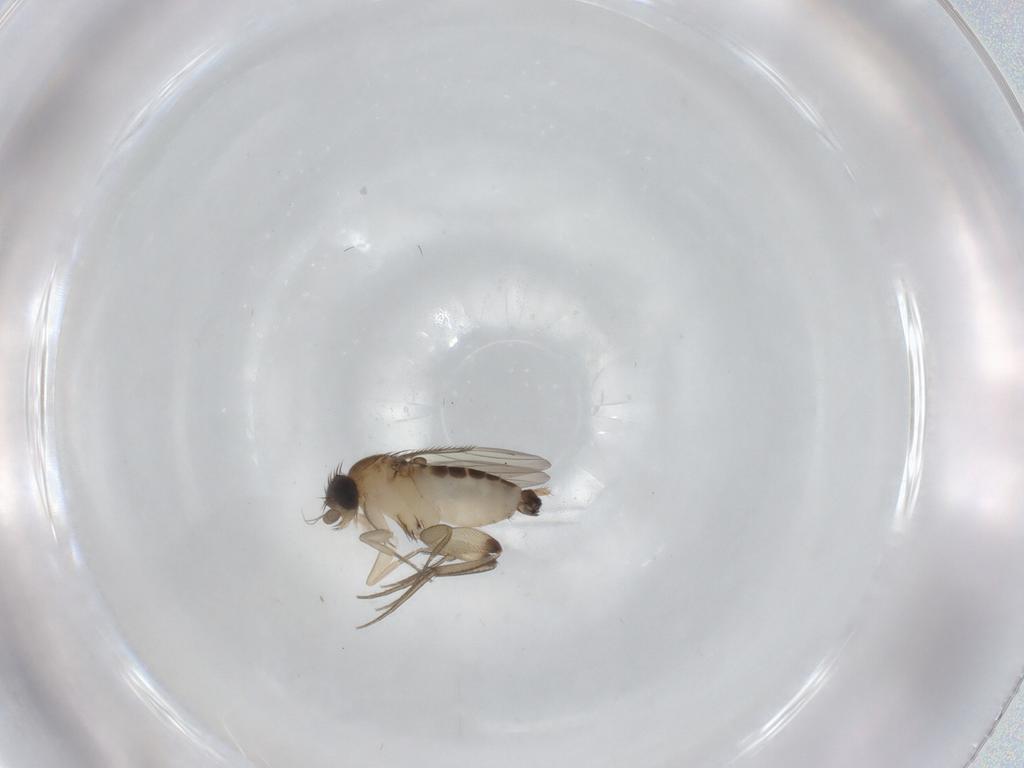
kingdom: Animalia
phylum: Arthropoda
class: Insecta
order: Diptera
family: Phoridae
